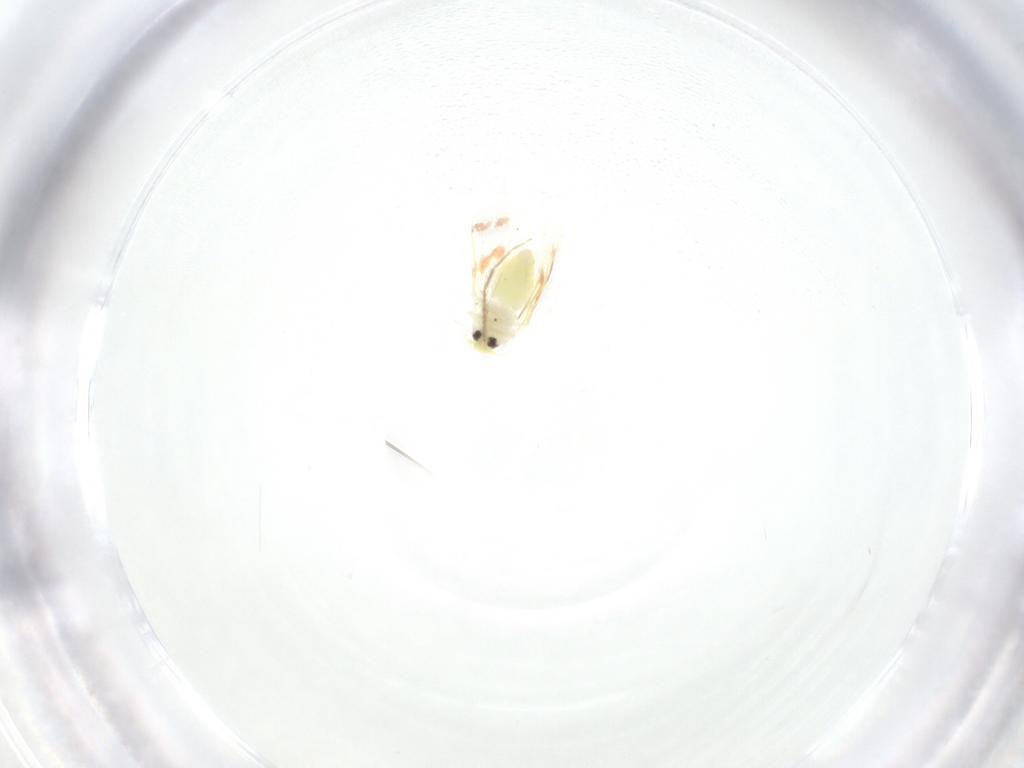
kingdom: Animalia
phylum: Arthropoda
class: Insecta
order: Hemiptera
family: Aleyrodidae
